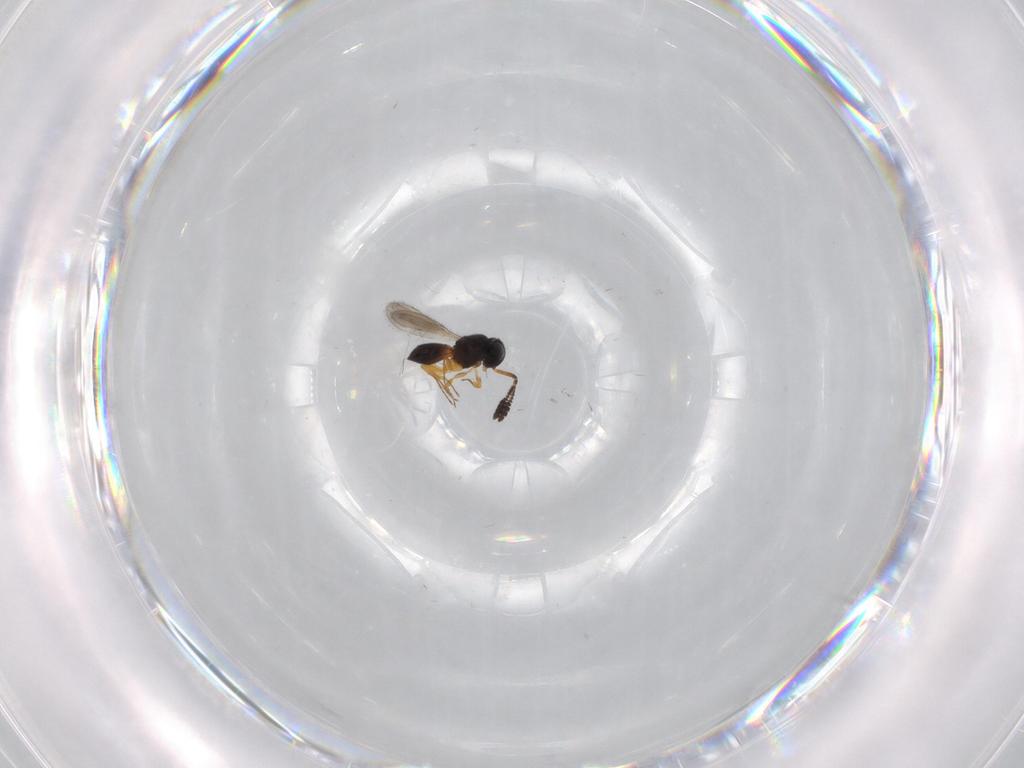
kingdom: Animalia
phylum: Arthropoda
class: Insecta
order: Hymenoptera
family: Scelionidae
